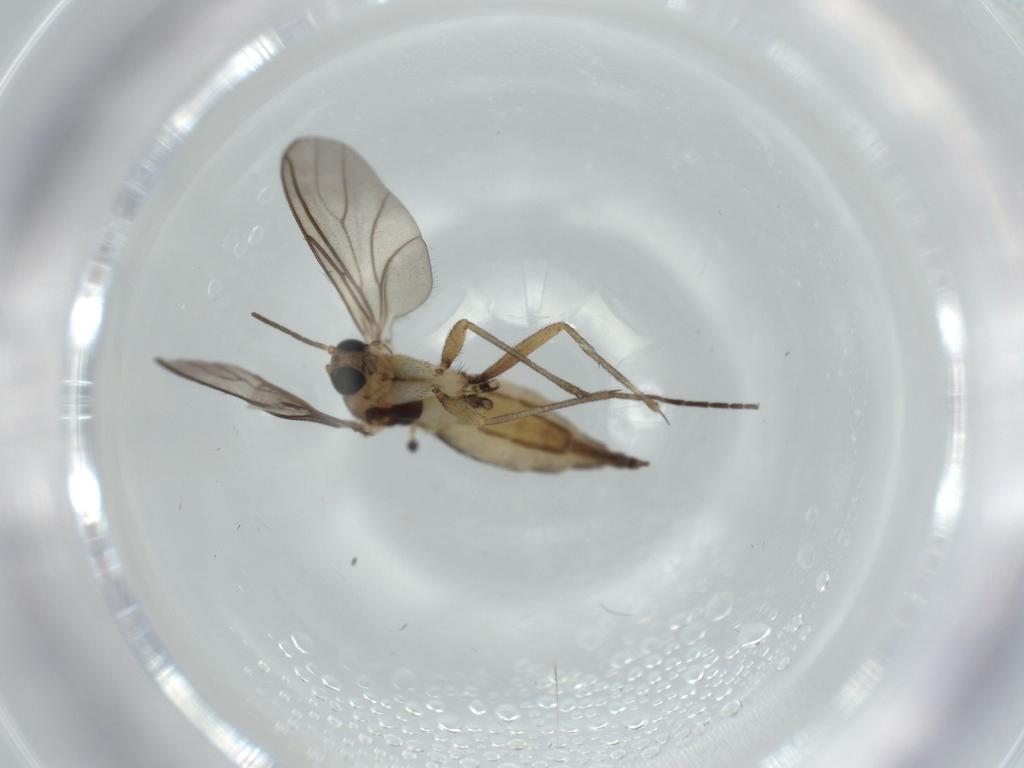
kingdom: Animalia
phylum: Arthropoda
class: Insecta
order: Diptera
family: Sciaridae
